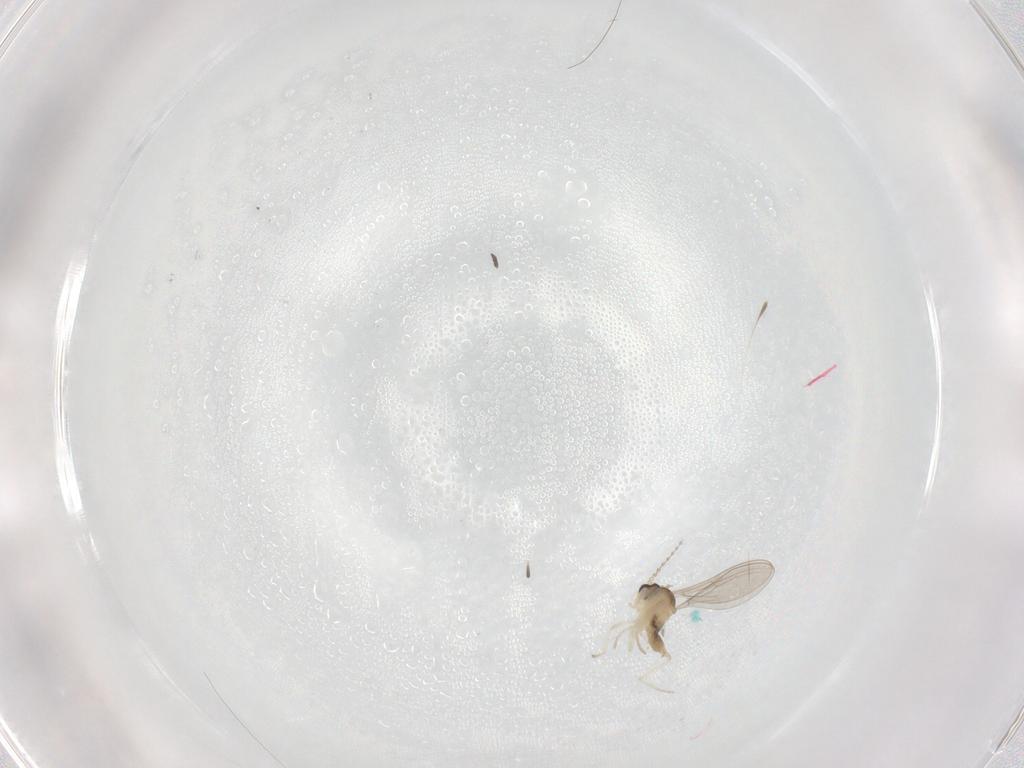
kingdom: Animalia
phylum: Arthropoda
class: Insecta
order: Diptera
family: Cecidomyiidae
